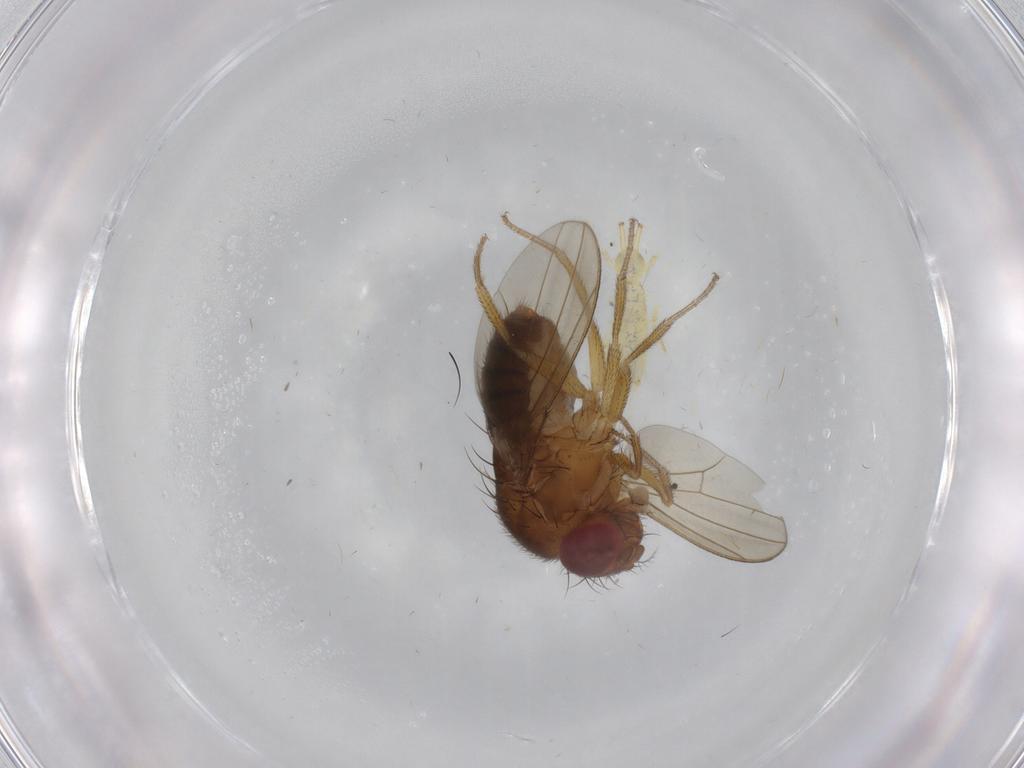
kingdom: Animalia
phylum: Arthropoda
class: Insecta
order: Diptera
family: Drosophilidae
